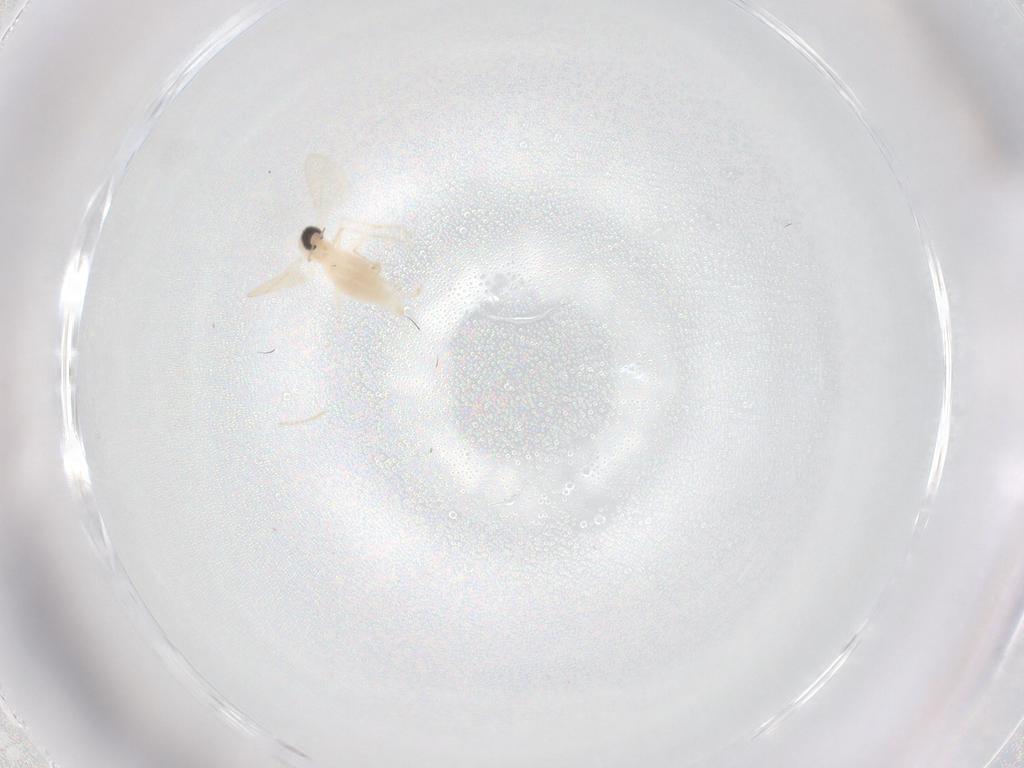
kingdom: Animalia
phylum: Arthropoda
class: Insecta
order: Diptera
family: Cecidomyiidae
